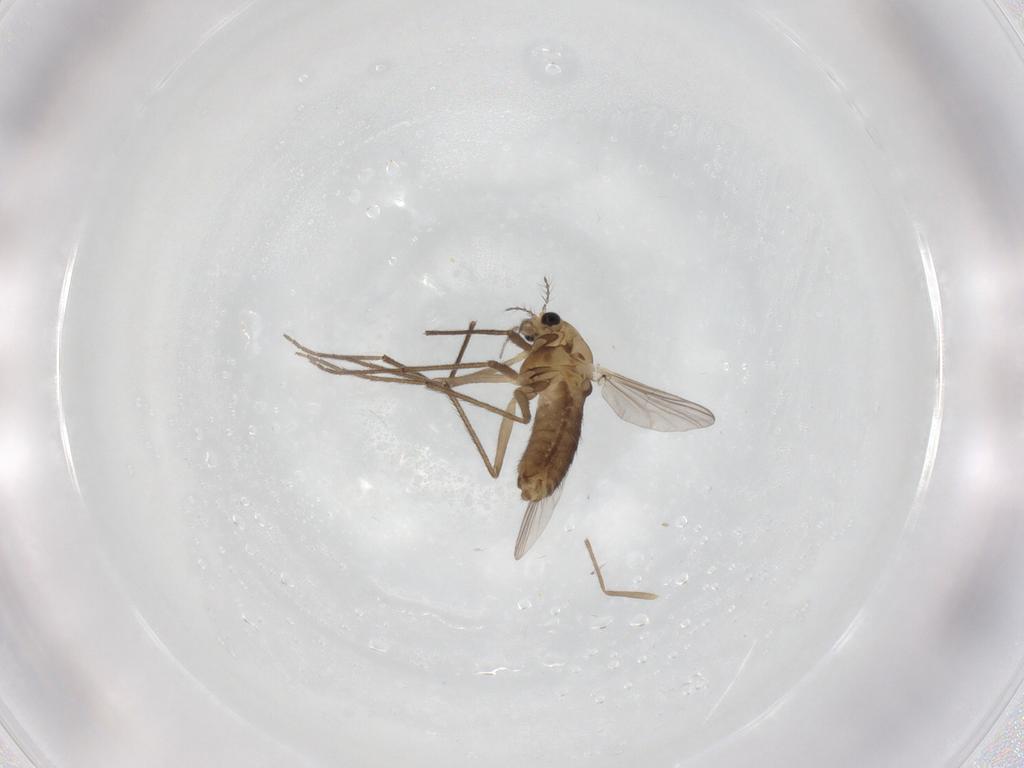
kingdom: Animalia
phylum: Arthropoda
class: Insecta
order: Diptera
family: Chironomidae
